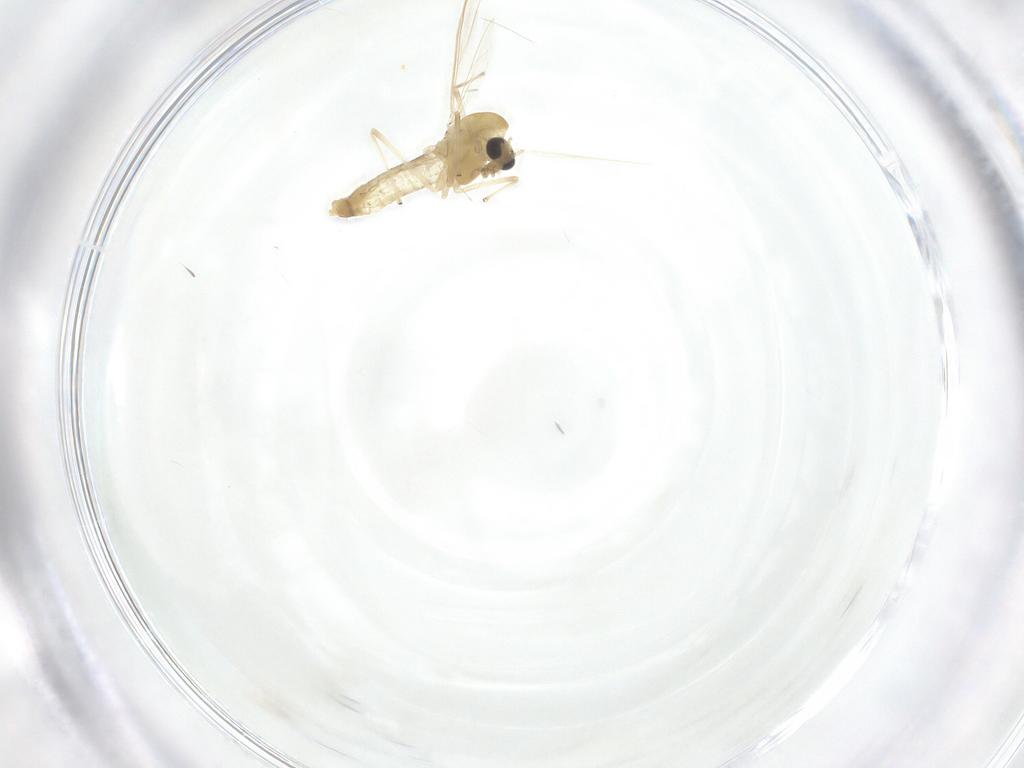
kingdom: Animalia
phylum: Arthropoda
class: Insecta
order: Diptera
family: Chironomidae
